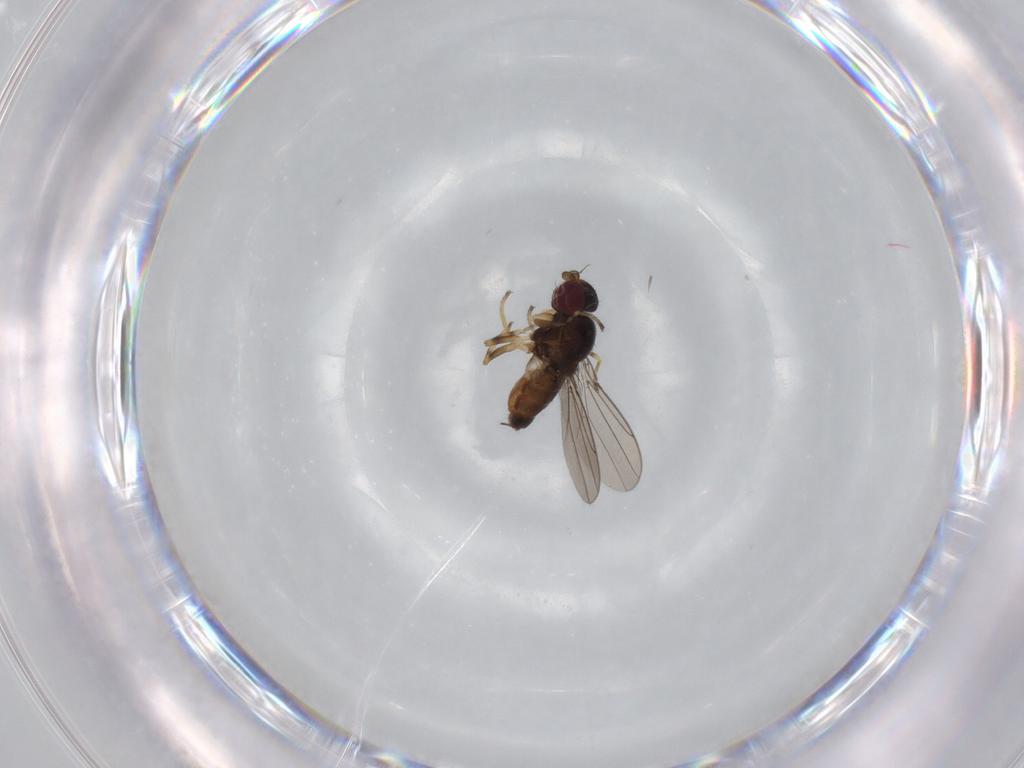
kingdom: Animalia
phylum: Arthropoda
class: Insecta
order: Diptera
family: Chloropidae
